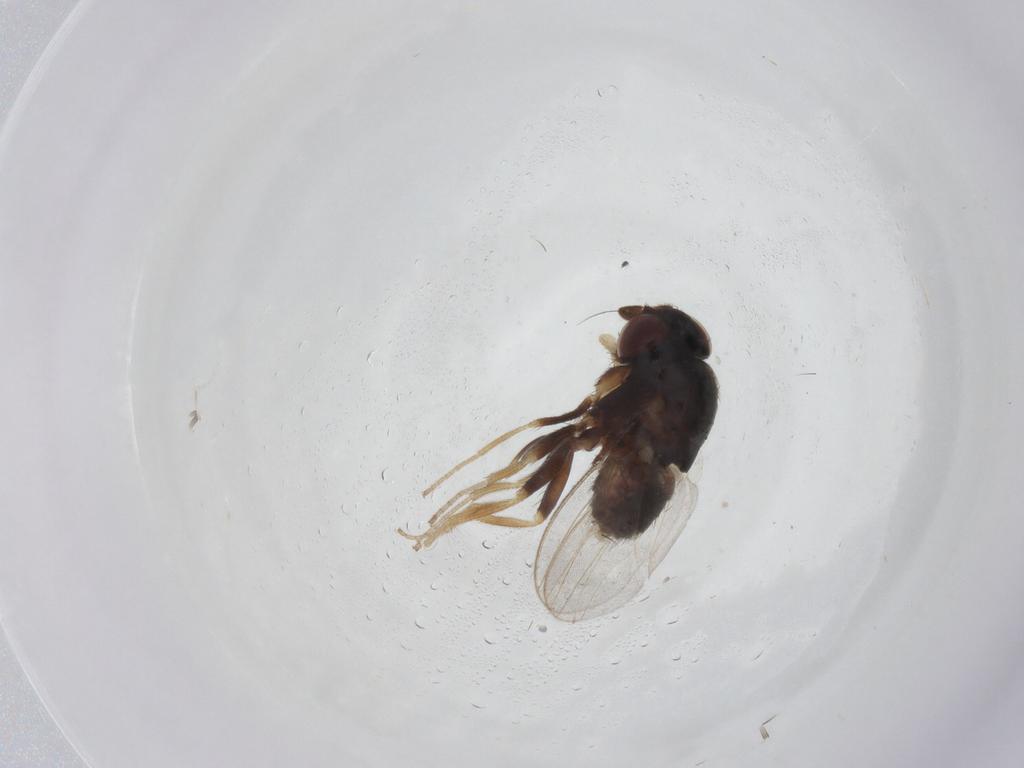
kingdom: Animalia
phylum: Arthropoda
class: Insecta
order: Diptera
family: Milichiidae
